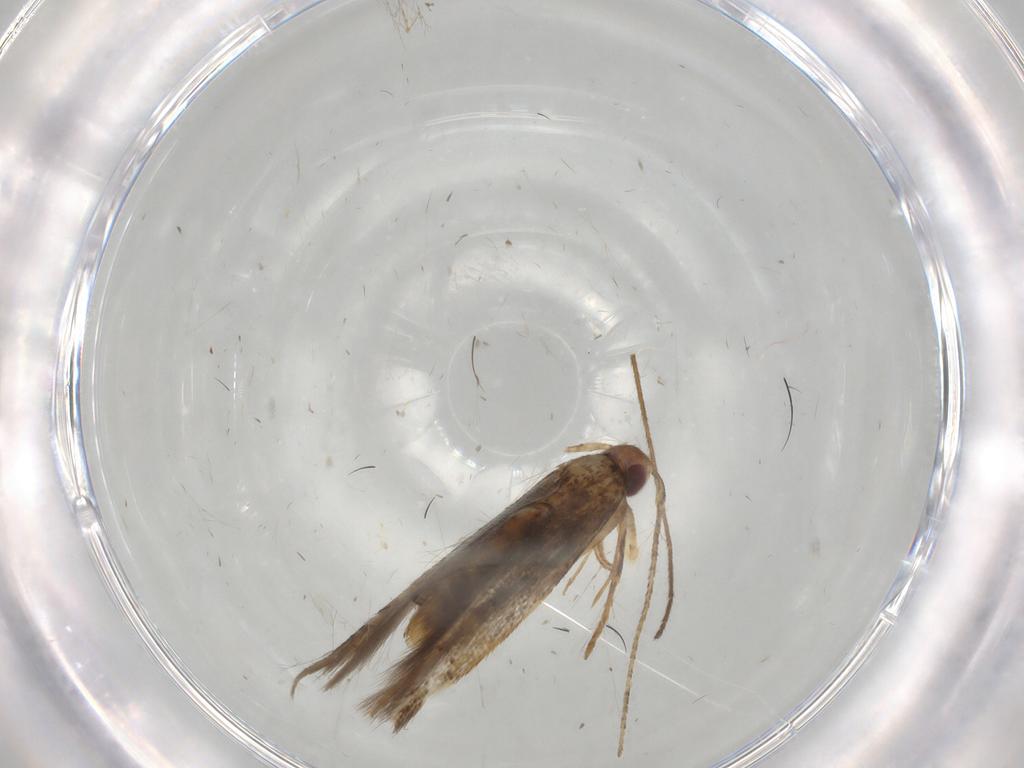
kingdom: Animalia
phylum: Arthropoda
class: Insecta
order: Lepidoptera
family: Cosmopterigidae
